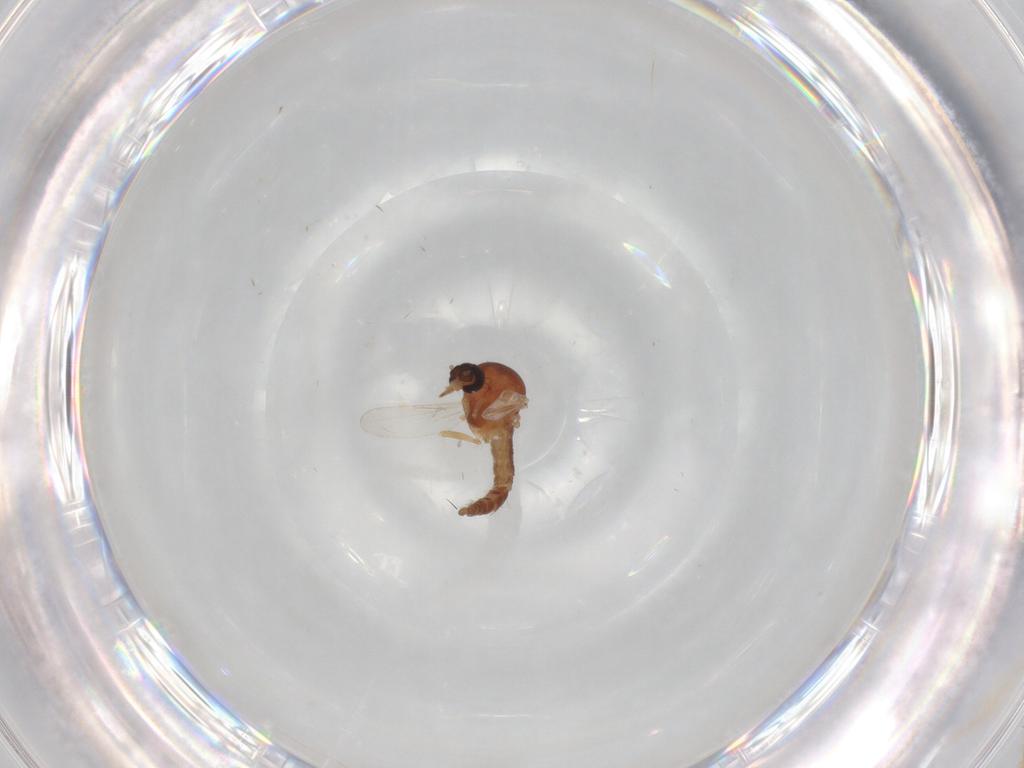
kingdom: Animalia
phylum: Arthropoda
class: Insecta
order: Diptera
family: Ceratopogonidae
